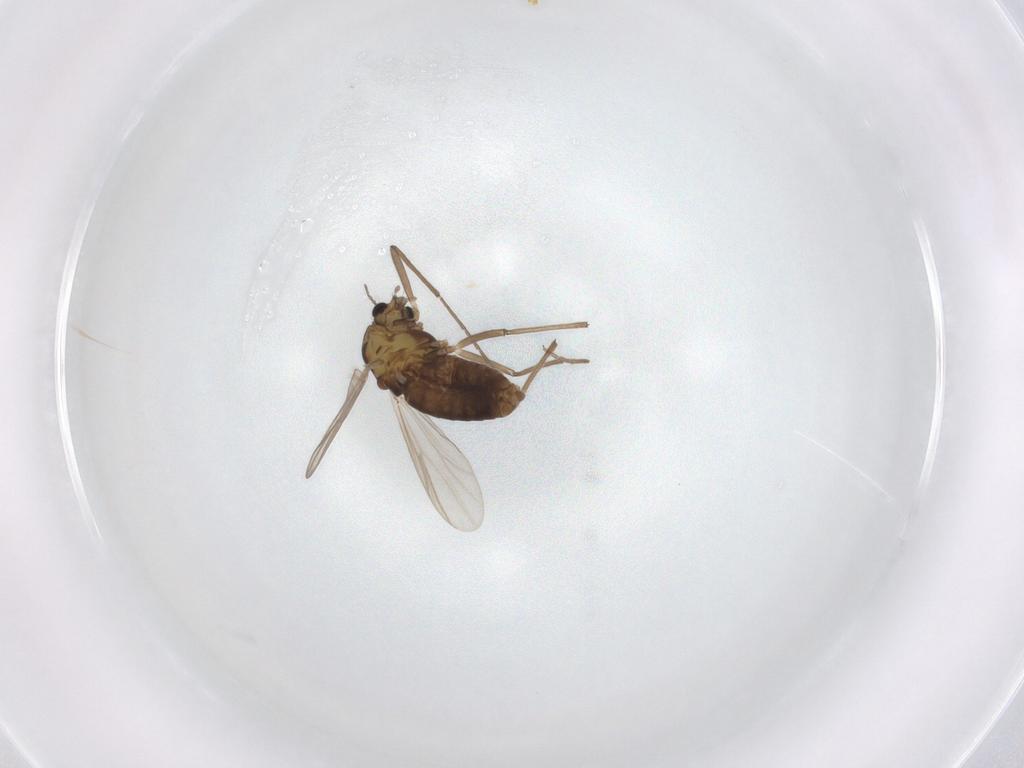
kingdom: Animalia
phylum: Arthropoda
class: Insecta
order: Diptera
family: Chironomidae
